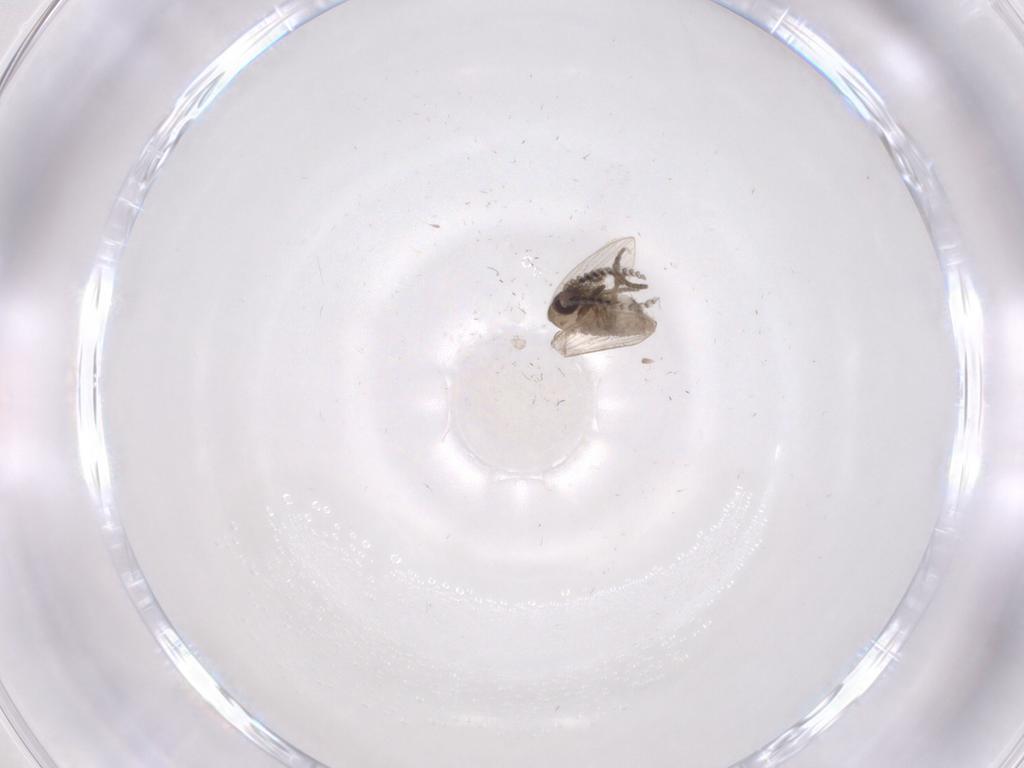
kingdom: Animalia
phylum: Arthropoda
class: Insecta
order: Diptera
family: Psychodidae
